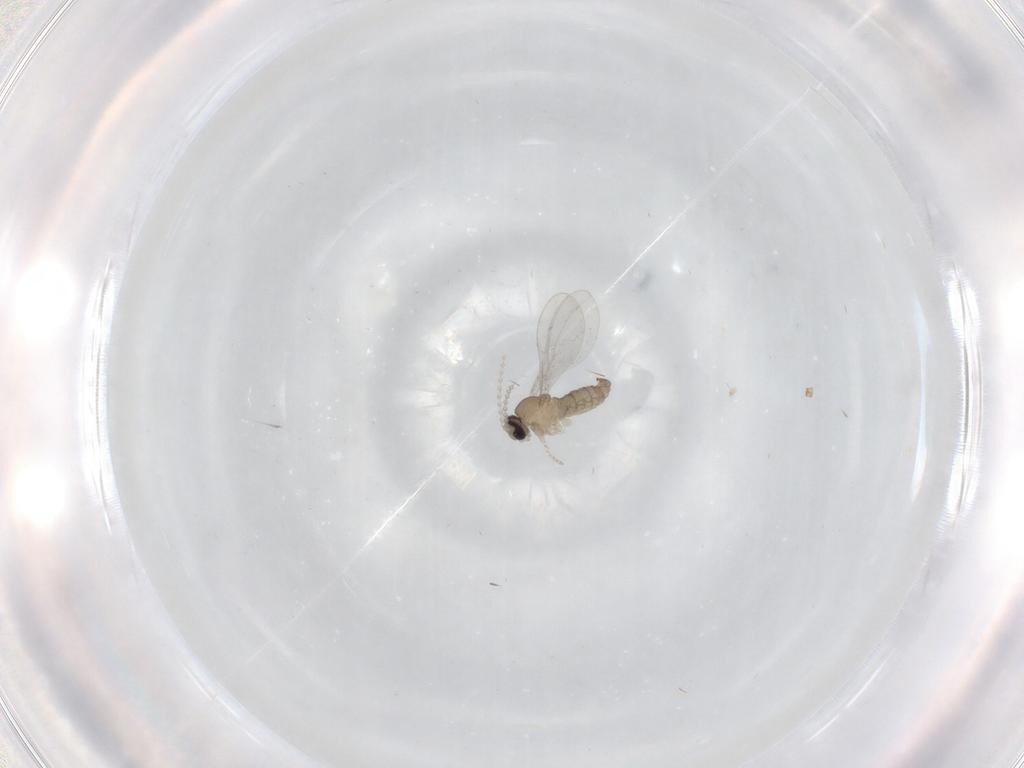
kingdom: Animalia
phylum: Arthropoda
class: Insecta
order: Diptera
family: Cecidomyiidae
